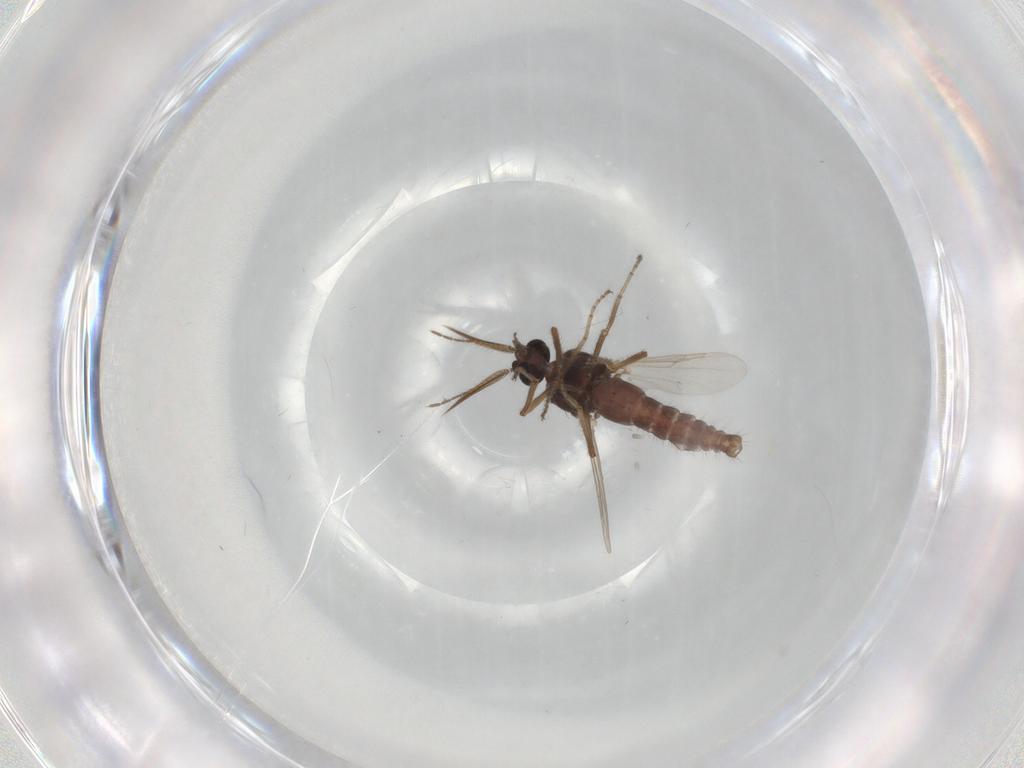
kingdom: Animalia
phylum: Arthropoda
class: Insecta
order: Diptera
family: Ceratopogonidae
